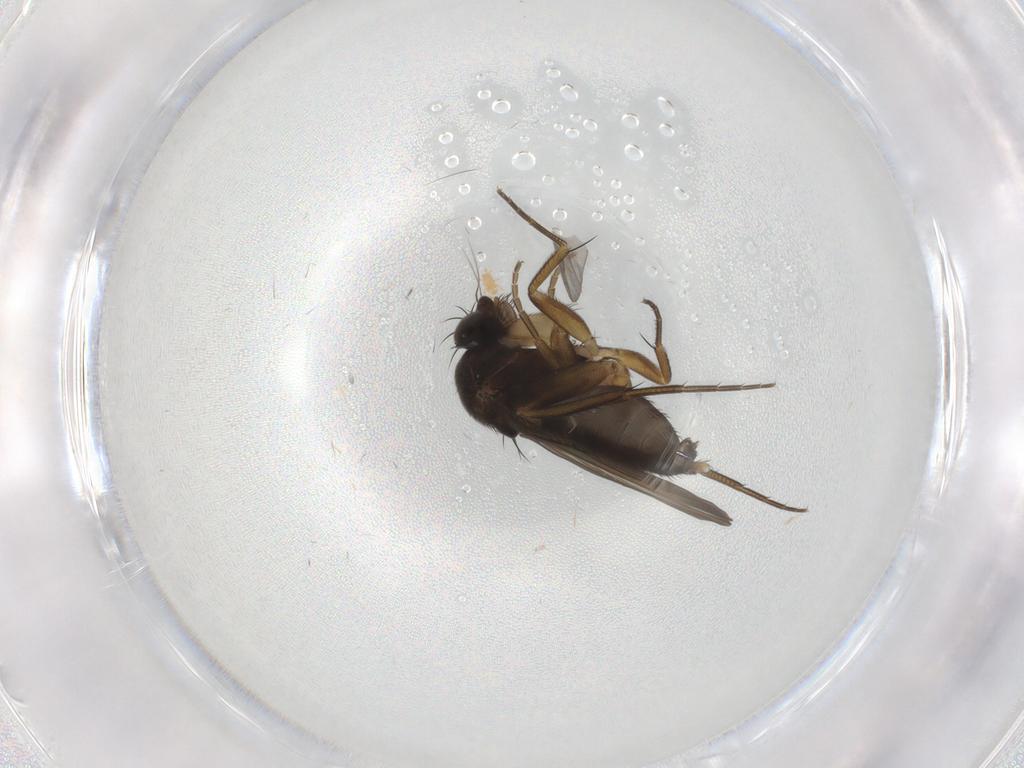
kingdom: Animalia
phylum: Arthropoda
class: Insecta
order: Diptera
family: Phoridae
